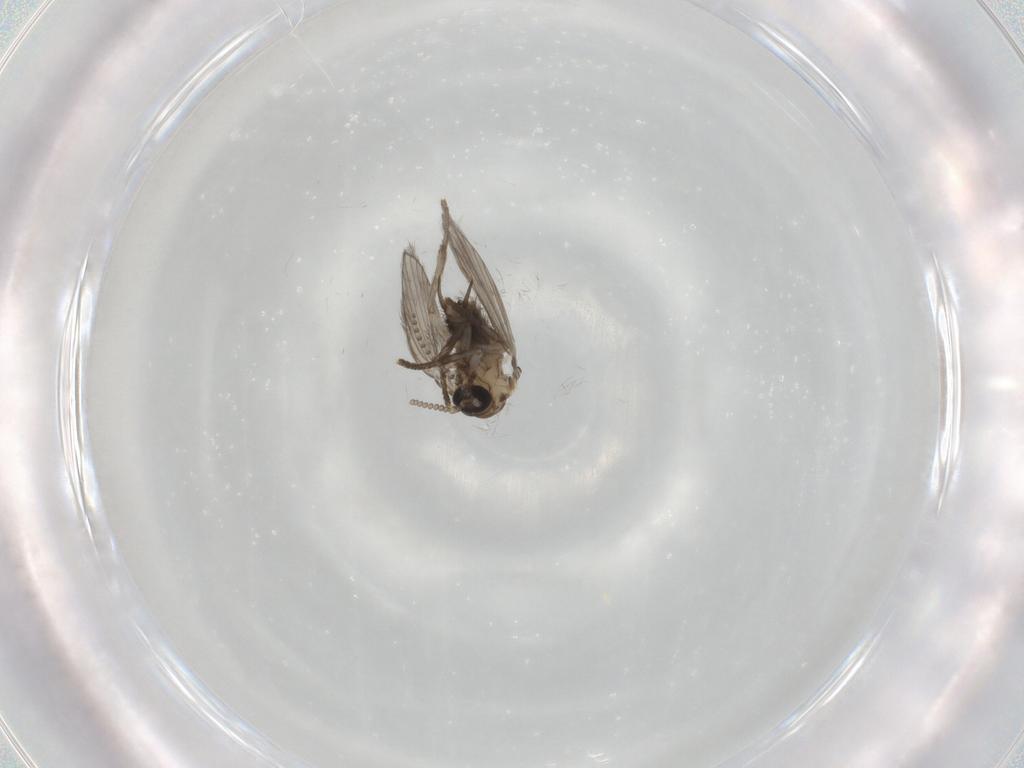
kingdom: Animalia
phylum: Arthropoda
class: Insecta
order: Diptera
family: Psychodidae
